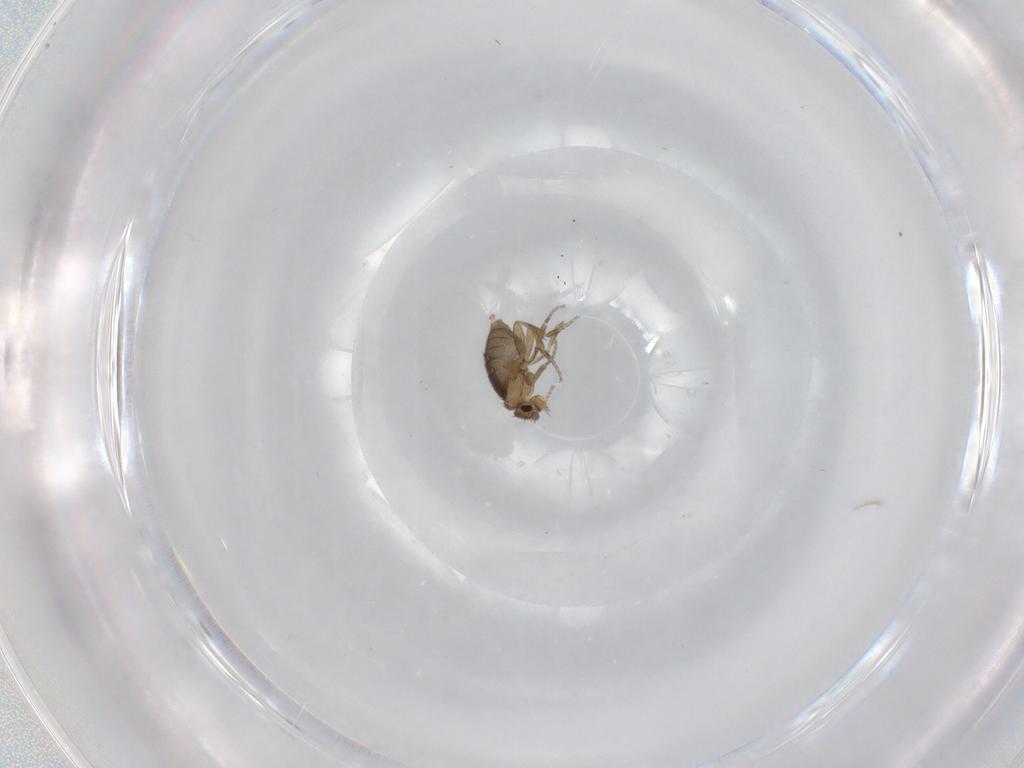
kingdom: Animalia
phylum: Arthropoda
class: Insecta
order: Diptera
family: Phoridae
